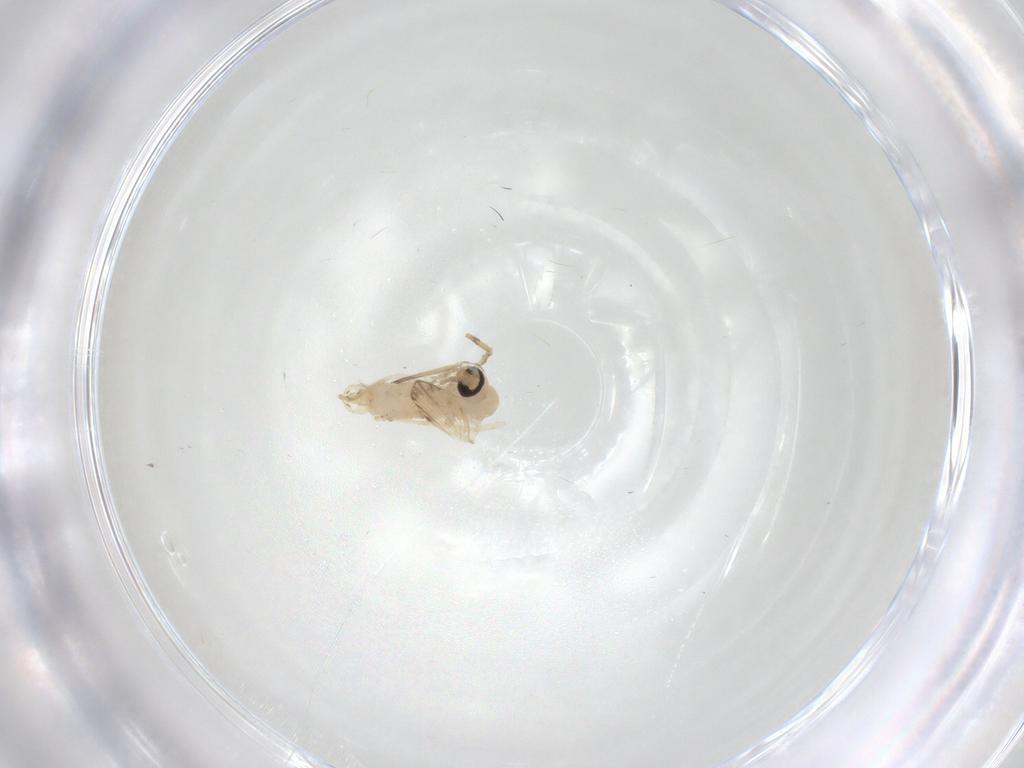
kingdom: Animalia
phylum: Arthropoda
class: Insecta
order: Diptera
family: Psychodidae
